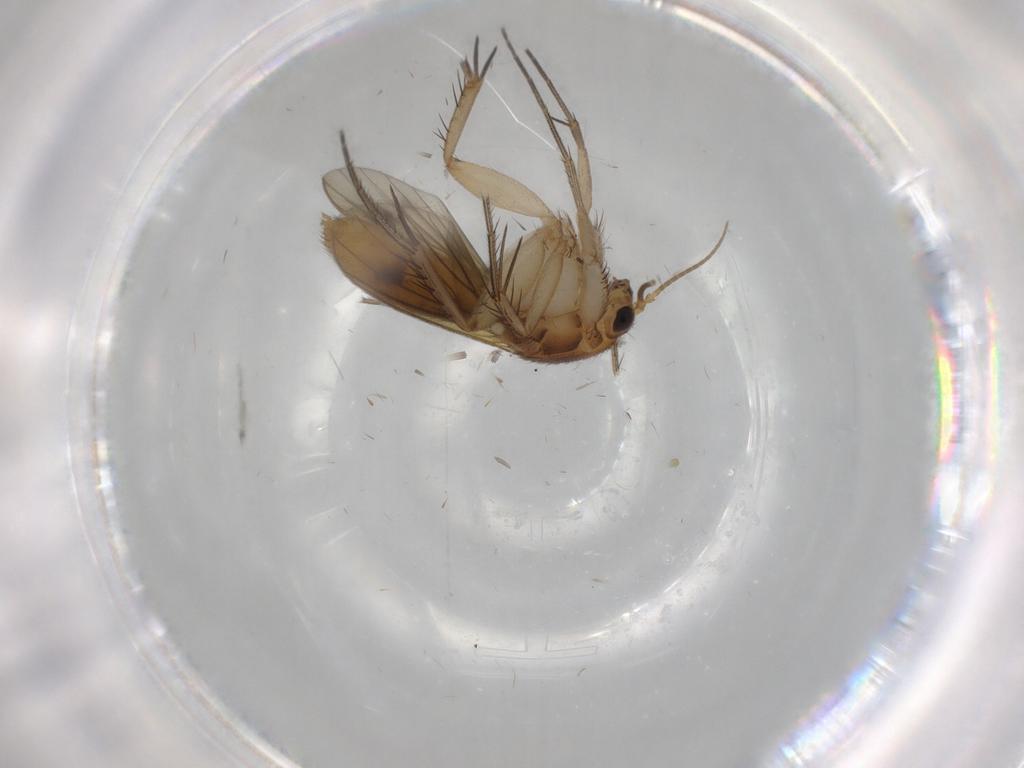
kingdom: Animalia
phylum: Arthropoda
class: Insecta
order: Diptera
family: Mycetophilidae
